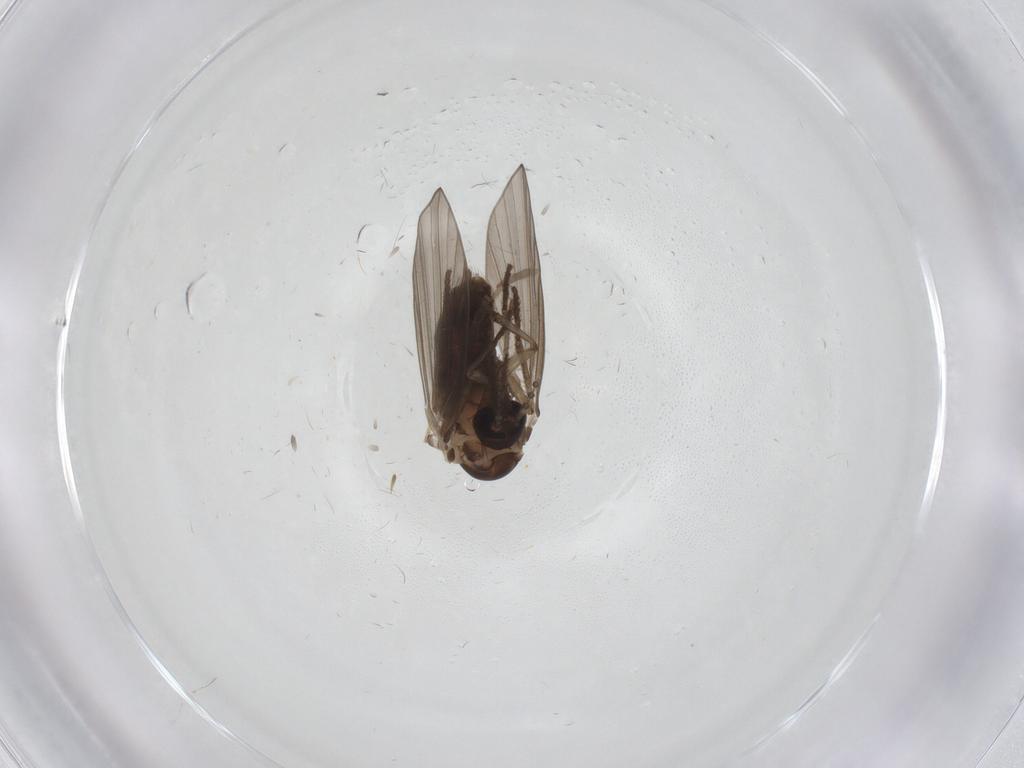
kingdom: Animalia
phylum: Arthropoda
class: Insecta
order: Diptera
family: Psychodidae
